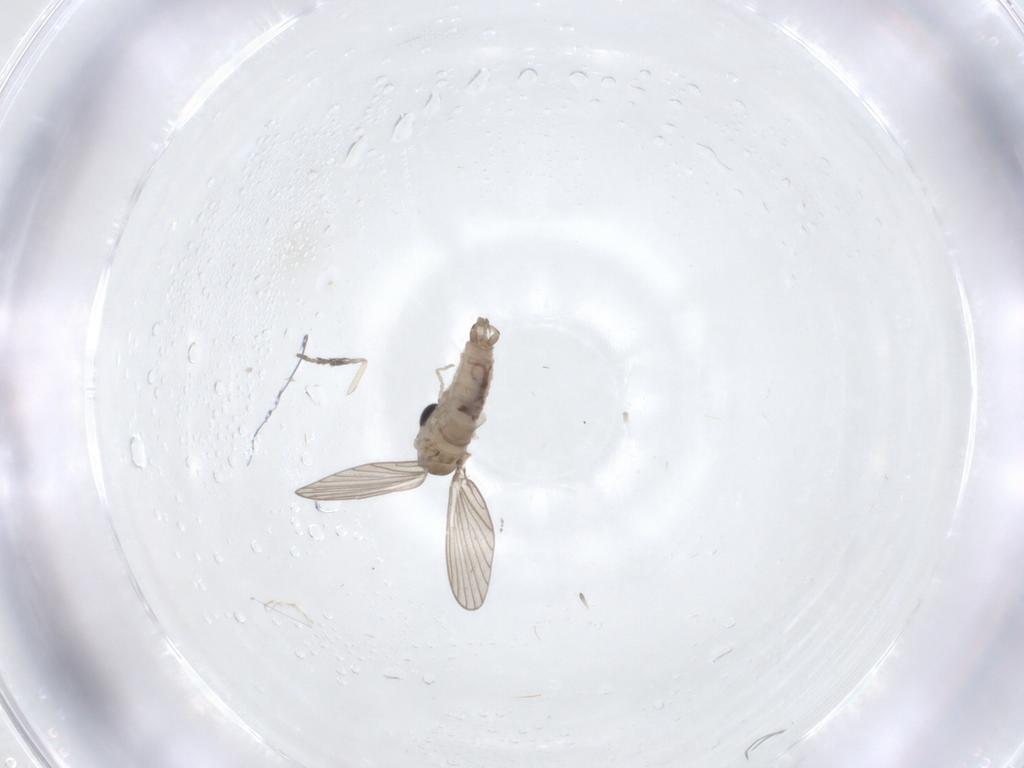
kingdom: Animalia
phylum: Arthropoda
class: Insecta
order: Diptera
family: Psychodidae
